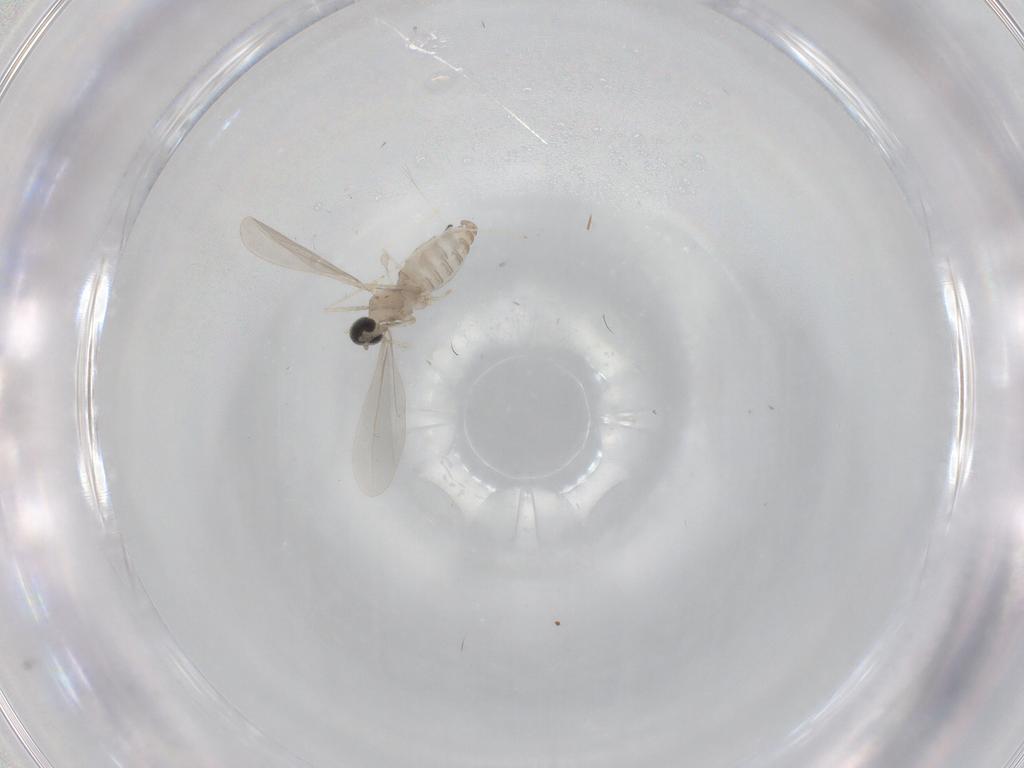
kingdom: Animalia
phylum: Arthropoda
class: Insecta
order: Diptera
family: Cecidomyiidae
